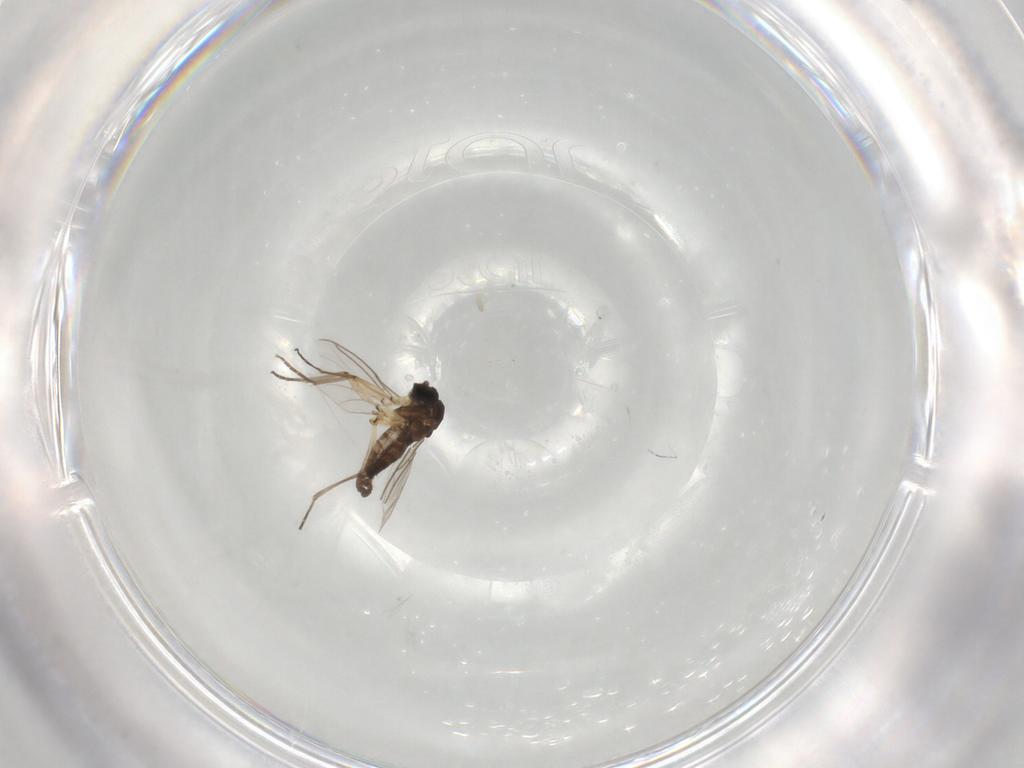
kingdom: Animalia
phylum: Arthropoda
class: Insecta
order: Diptera
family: Sciaridae
